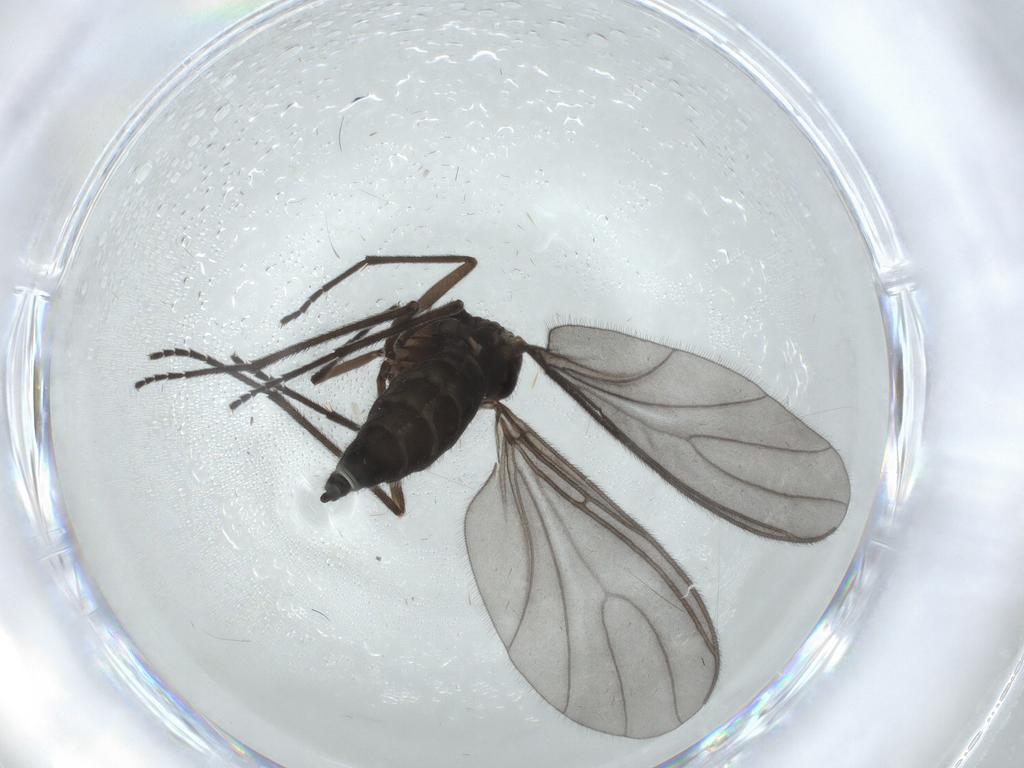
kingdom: Animalia
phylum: Arthropoda
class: Insecta
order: Diptera
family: Sciaridae
